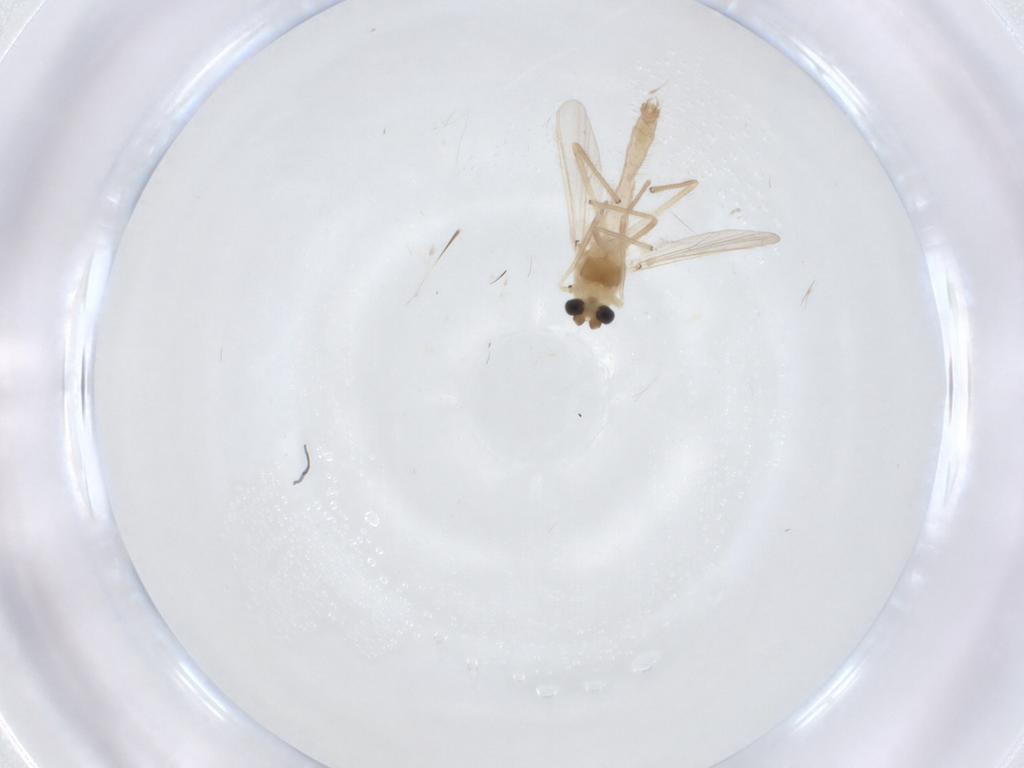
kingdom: Animalia
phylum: Arthropoda
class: Insecta
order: Diptera
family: Chironomidae
